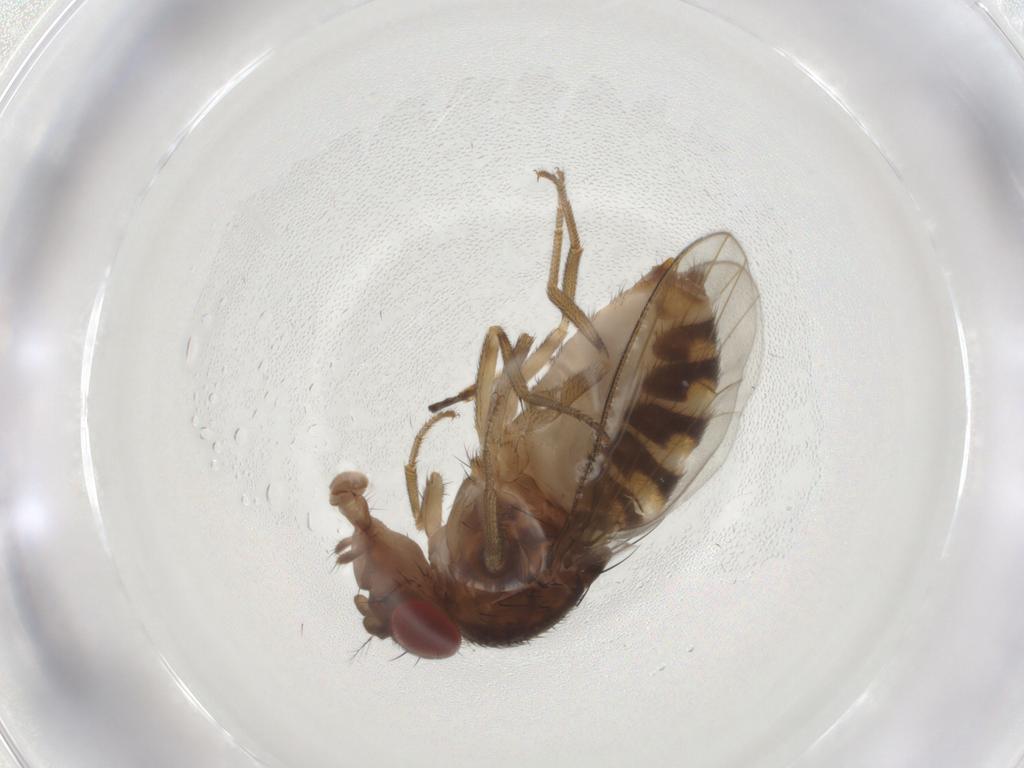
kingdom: Animalia
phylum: Arthropoda
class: Insecta
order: Diptera
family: Drosophilidae
